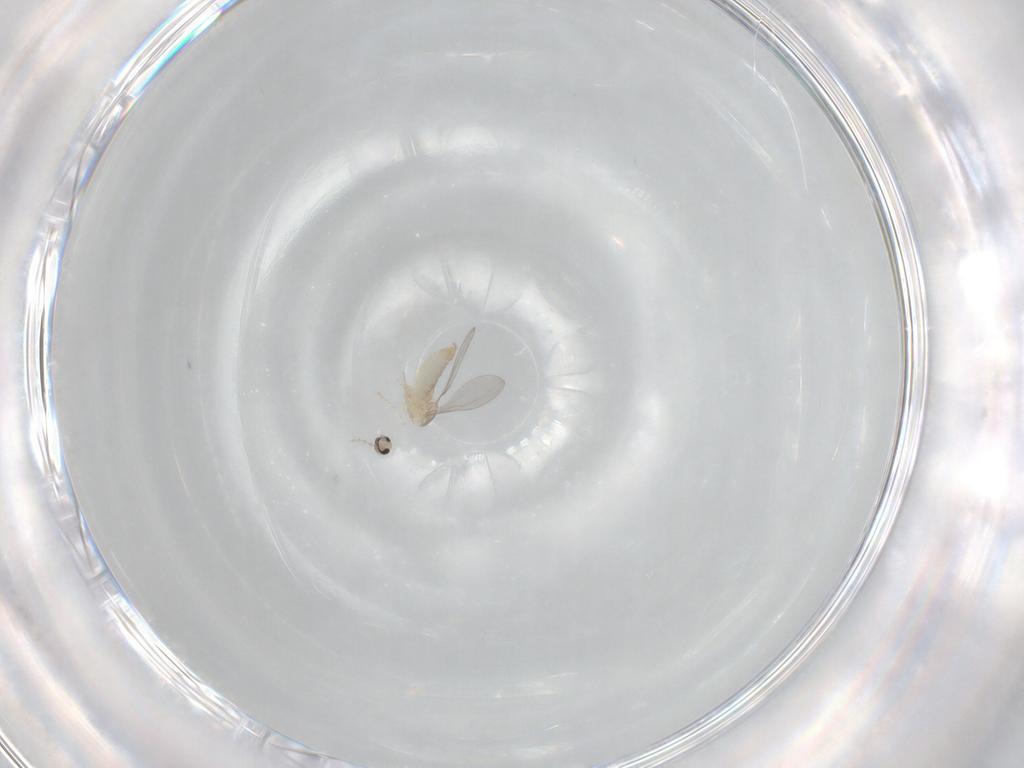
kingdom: Animalia
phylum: Arthropoda
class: Insecta
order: Diptera
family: Cecidomyiidae
